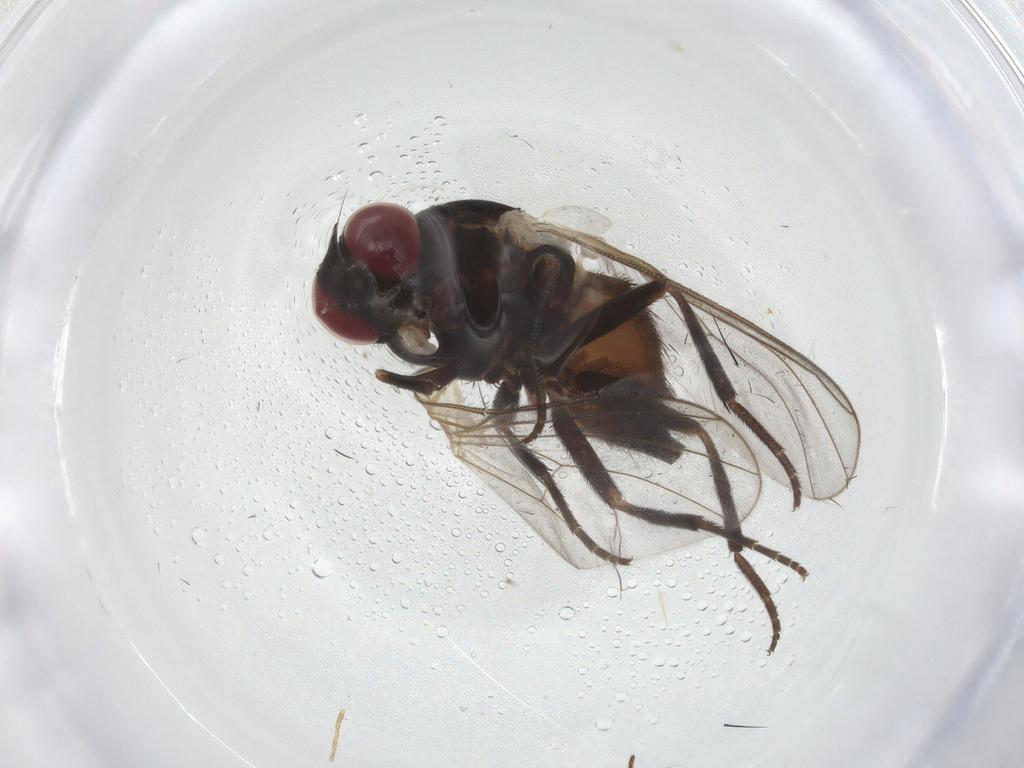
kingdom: Animalia
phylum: Arthropoda
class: Insecta
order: Diptera
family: Agromyzidae
